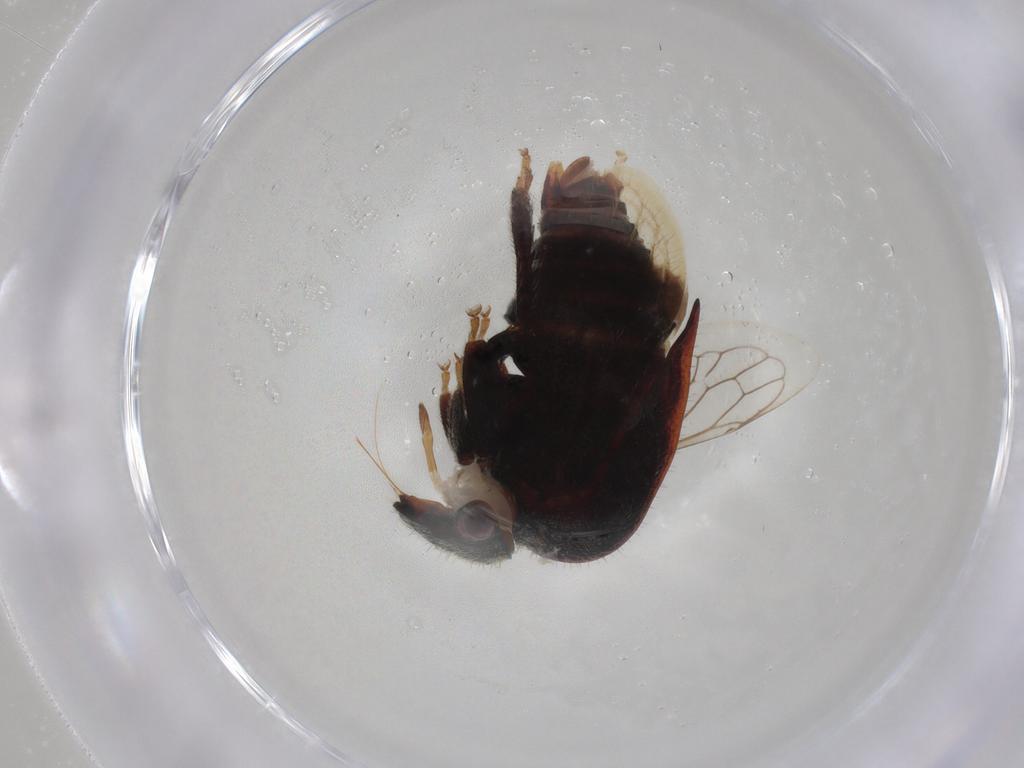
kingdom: Animalia
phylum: Arthropoda
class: Insecta
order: Hemiptera
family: Membracidae
